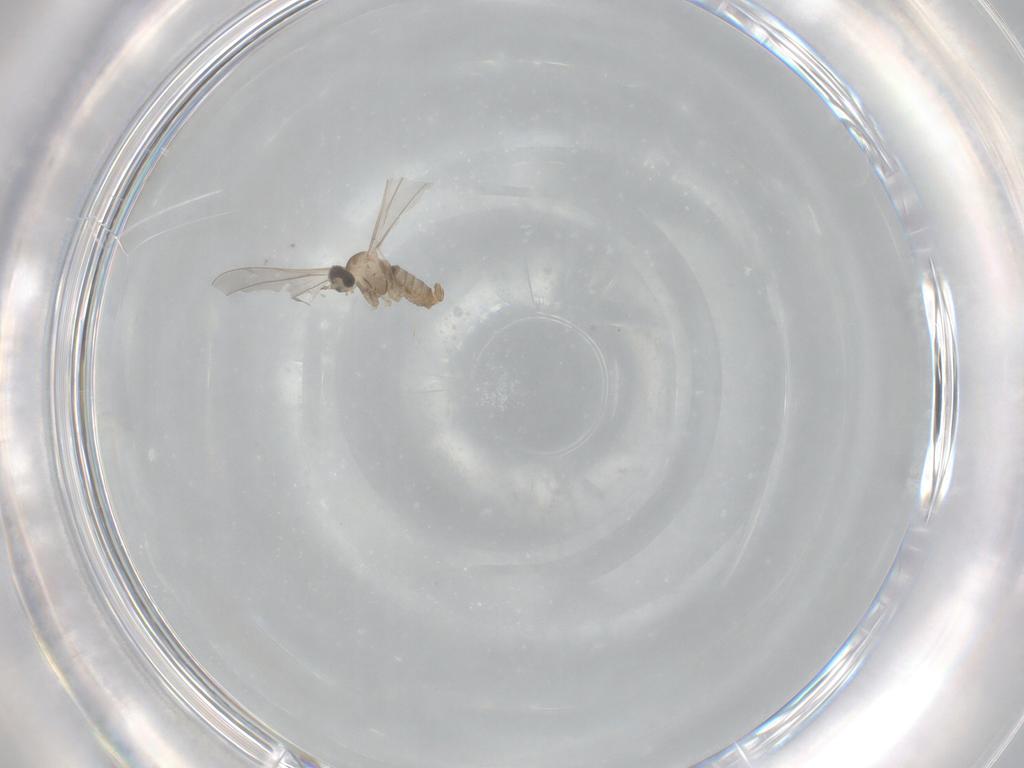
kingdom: Animalia
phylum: Arthropoda
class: Insecta
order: Diptera
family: Cecidomyiidae
